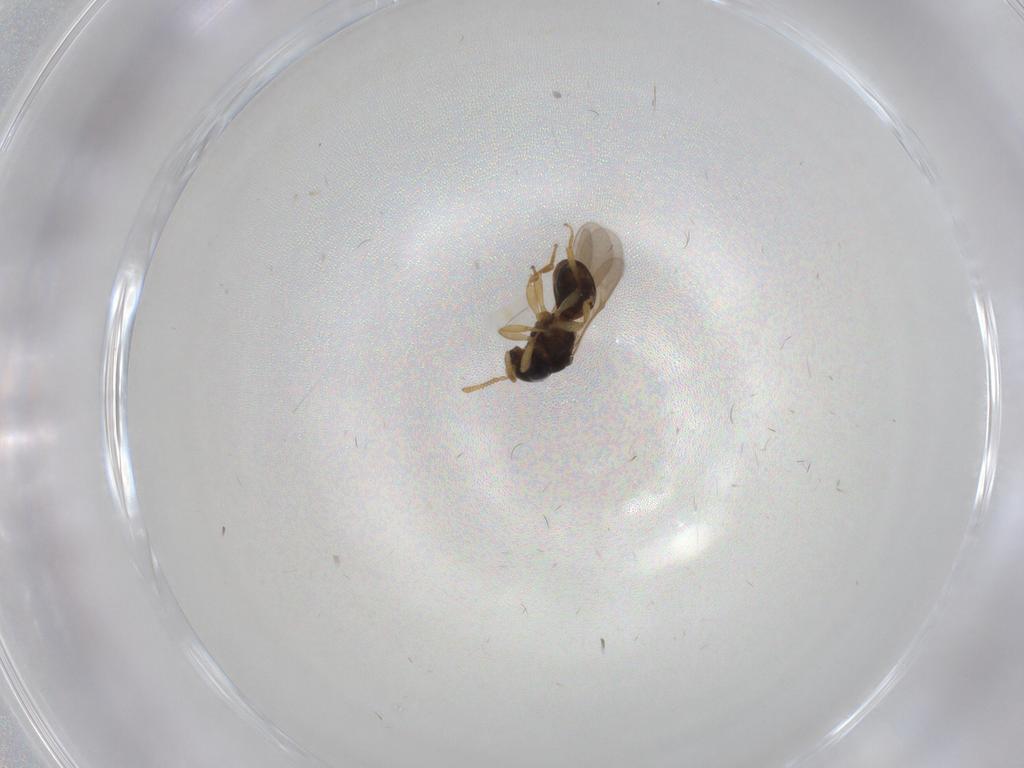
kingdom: Animalia
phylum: Arthropoda
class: Insecta
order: Hymenoptera
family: Scelionidae
